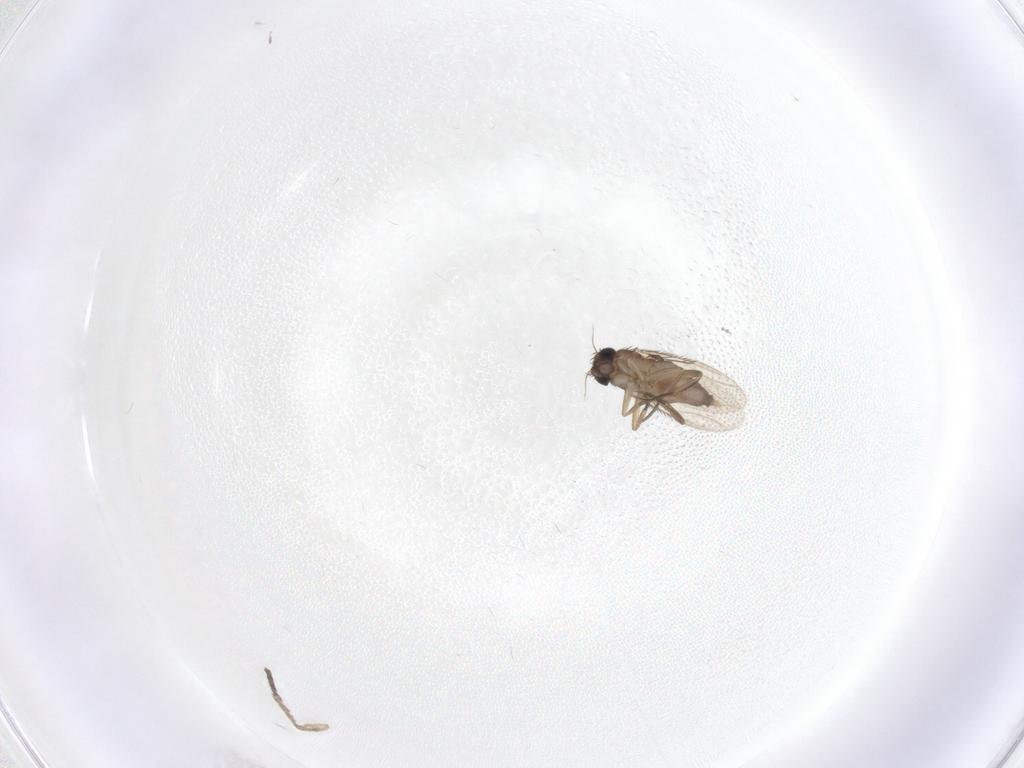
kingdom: Animalia
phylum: Arthropoda
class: Insecta
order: Diptera
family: Phoridae
